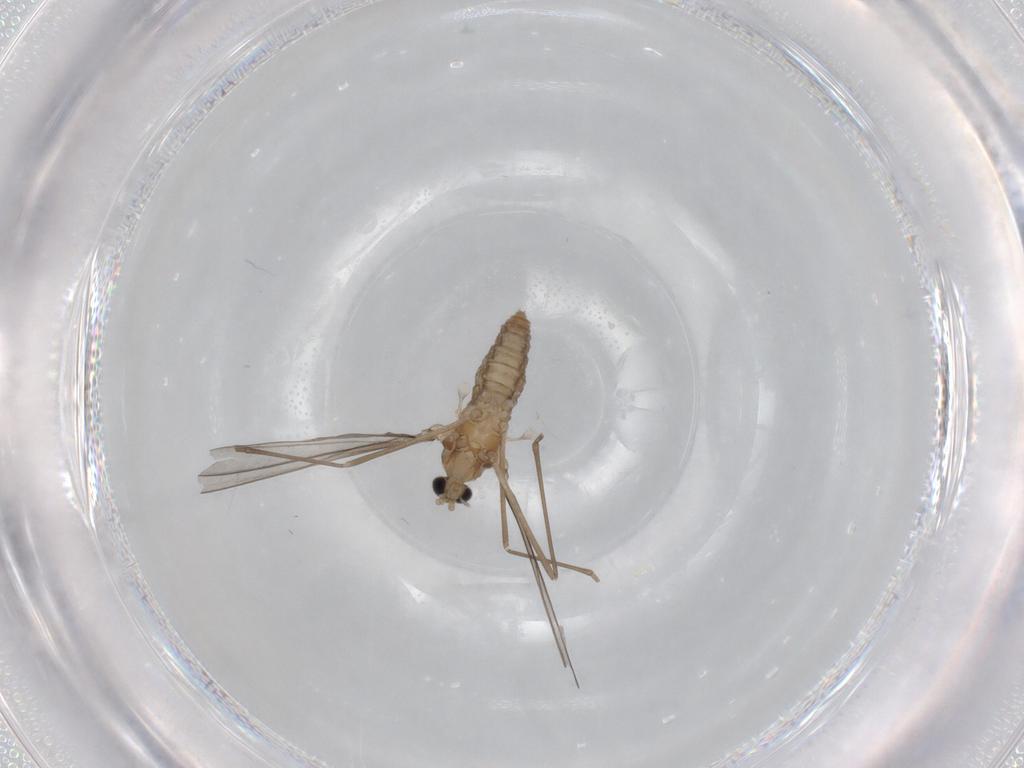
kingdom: Animalia
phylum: Arthropoda
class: Insecta
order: Diptera
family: Cecidomyiidae
